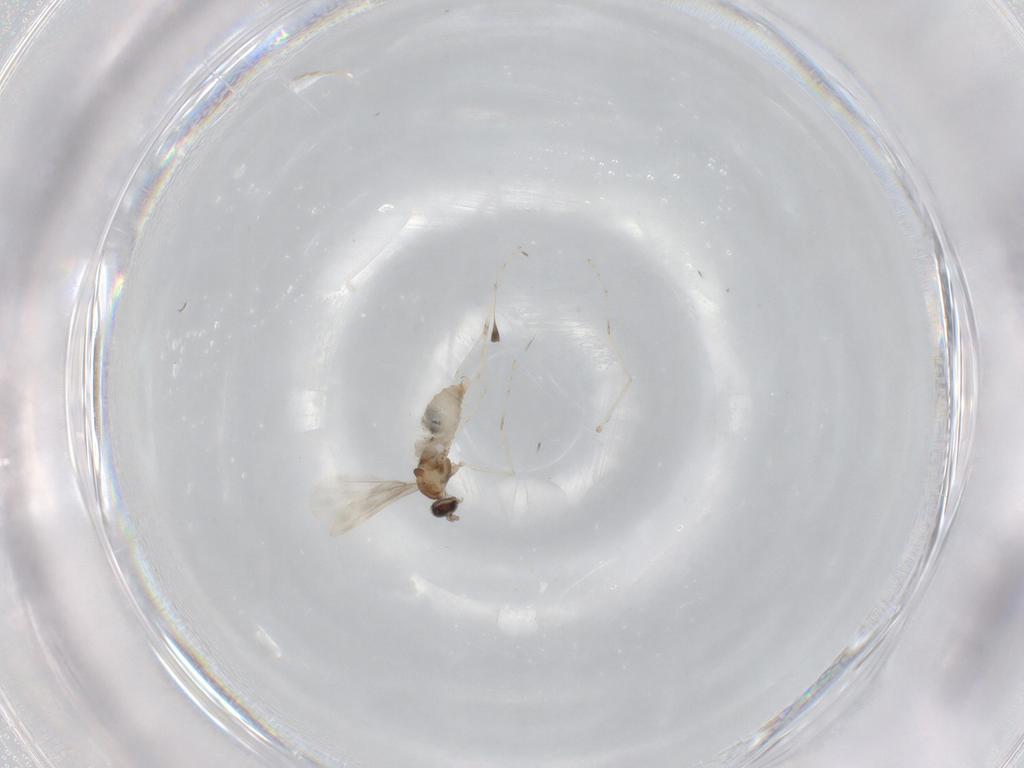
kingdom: Animalia
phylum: Arthropoda
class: Insecta
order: Diptera
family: Cecidomyiidae
